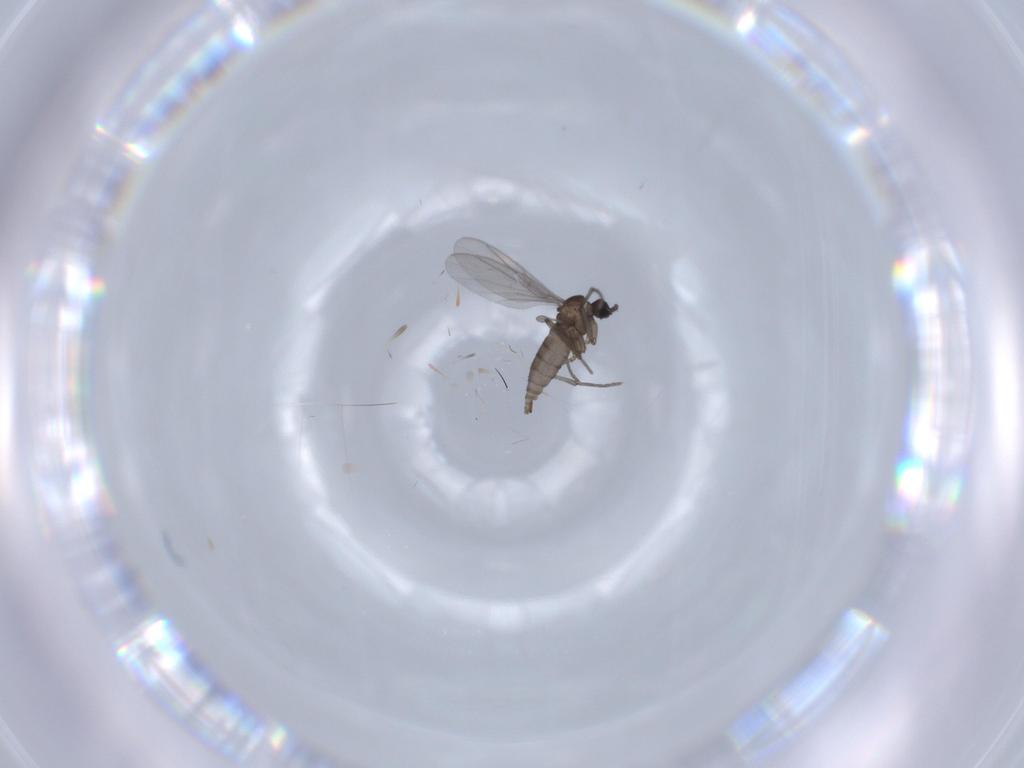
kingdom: Animalia
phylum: Arthropoda
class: Insecta
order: Diptera
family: Sciaridae
